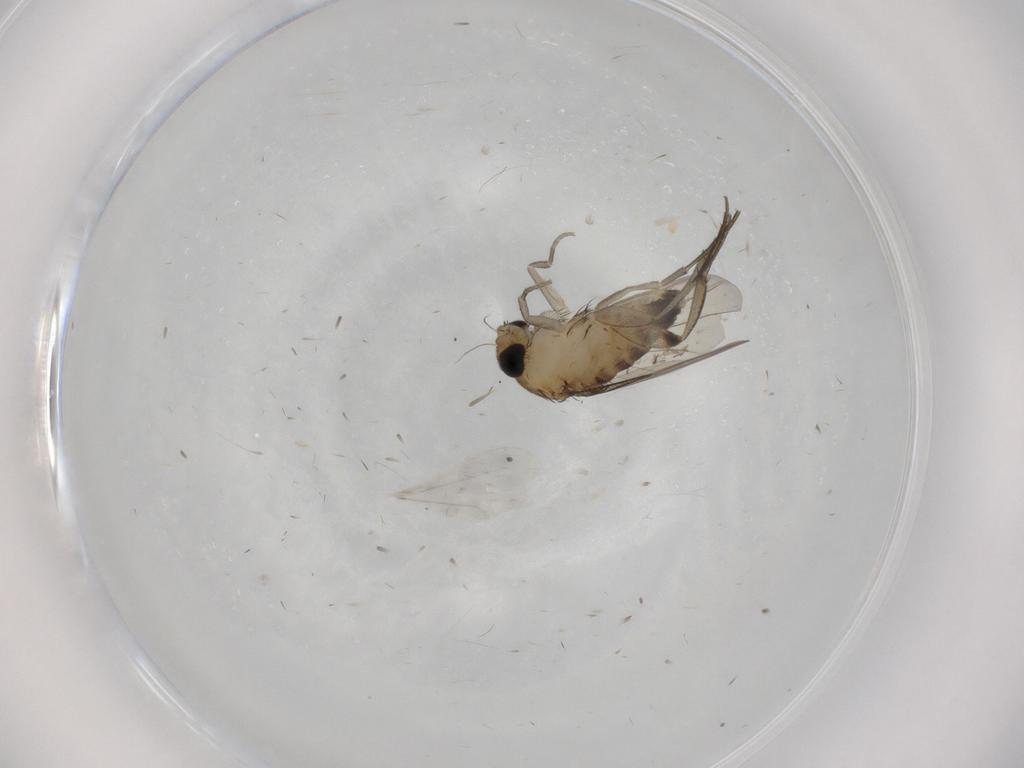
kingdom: Animalia
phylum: Arthropoda
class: Insecta
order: Diptera
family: Phoridae
